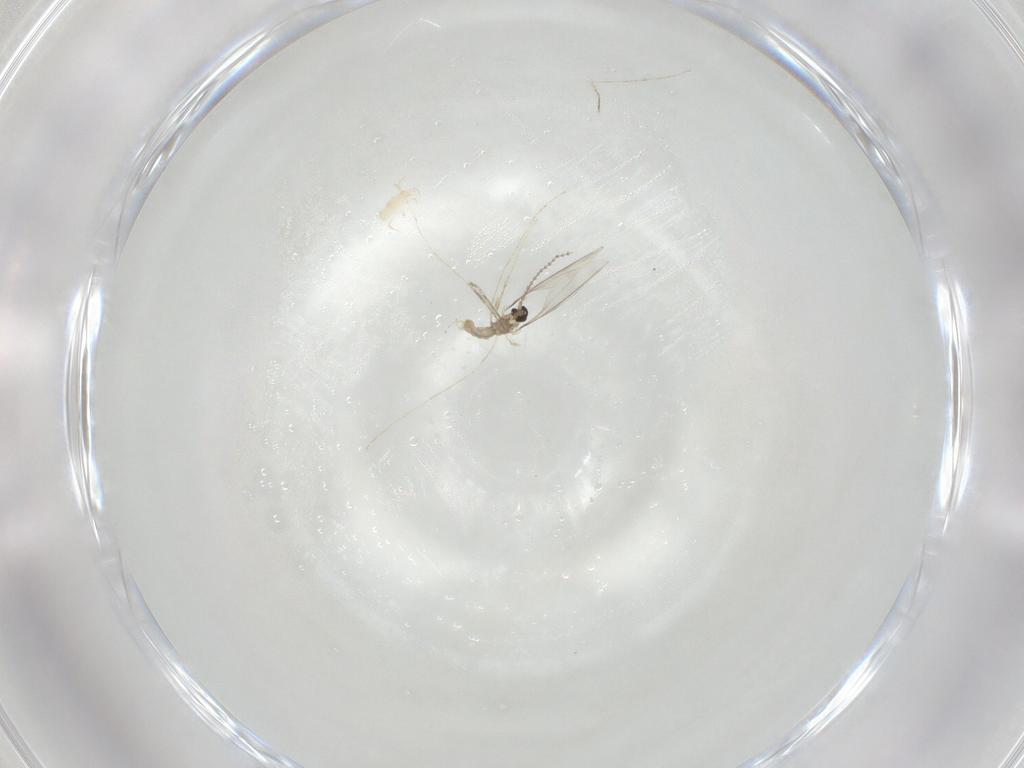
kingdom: Animalia
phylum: Arthropoda
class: Insecta
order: Diptera
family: Cecidomyiidae
